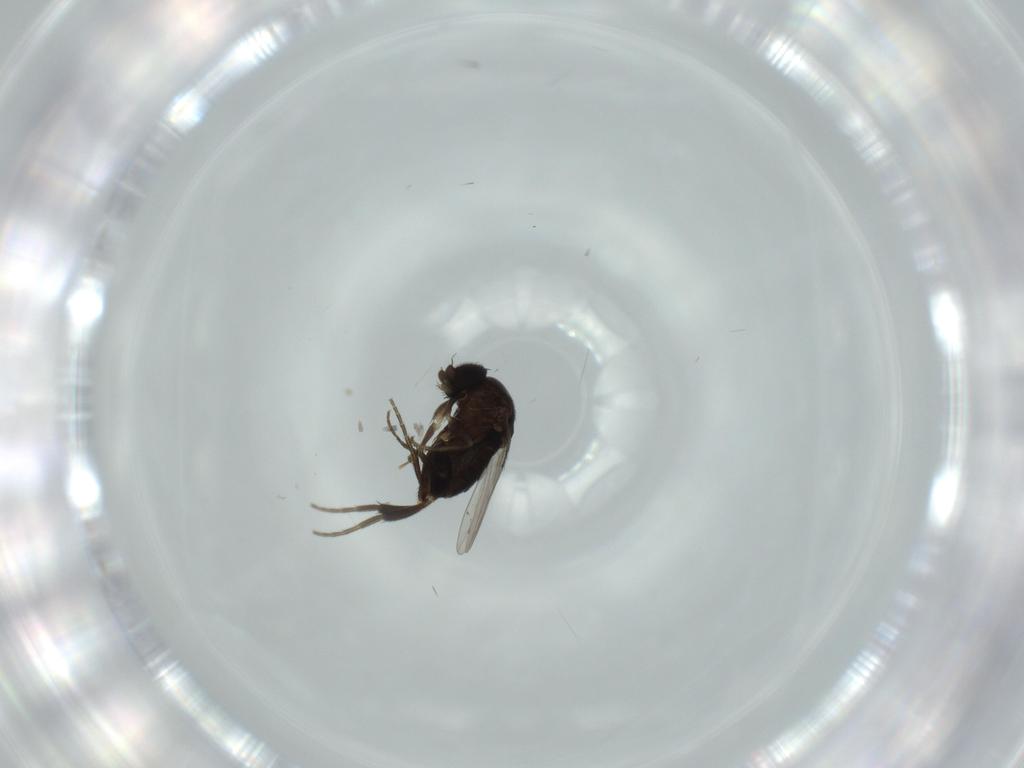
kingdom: Animalia
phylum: Arthropoda
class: Insecta
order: Diptera
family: Phoridae
